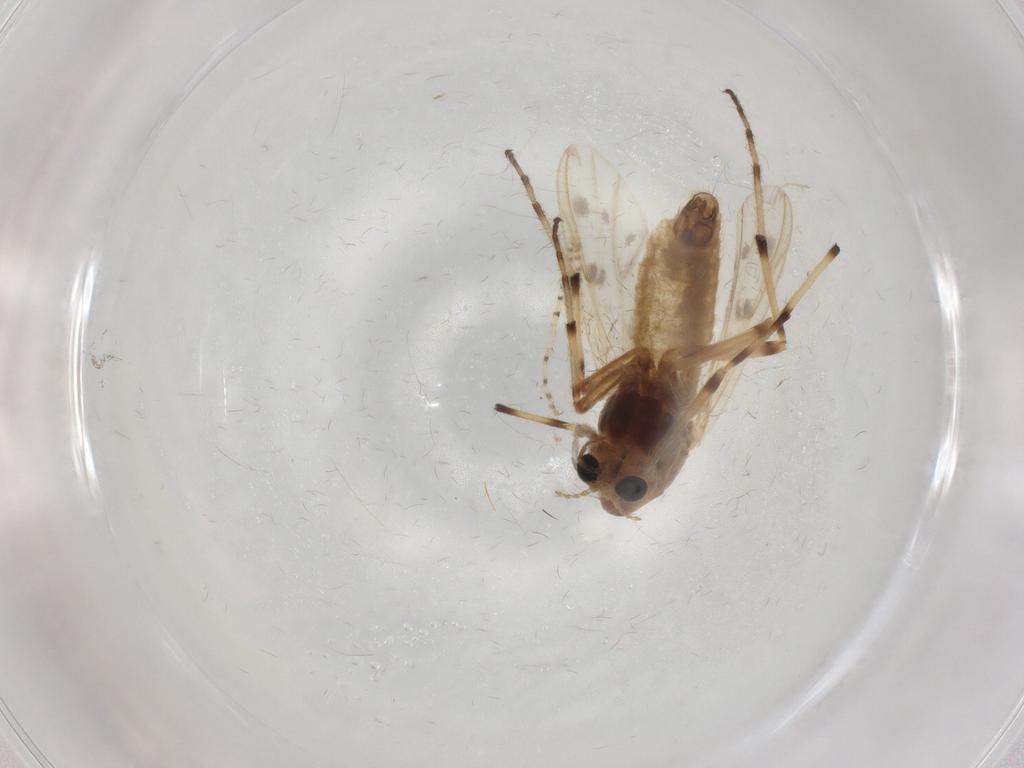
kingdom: Animalia
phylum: Arthropoda
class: Insecta
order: Diptera
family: Chironomidae
